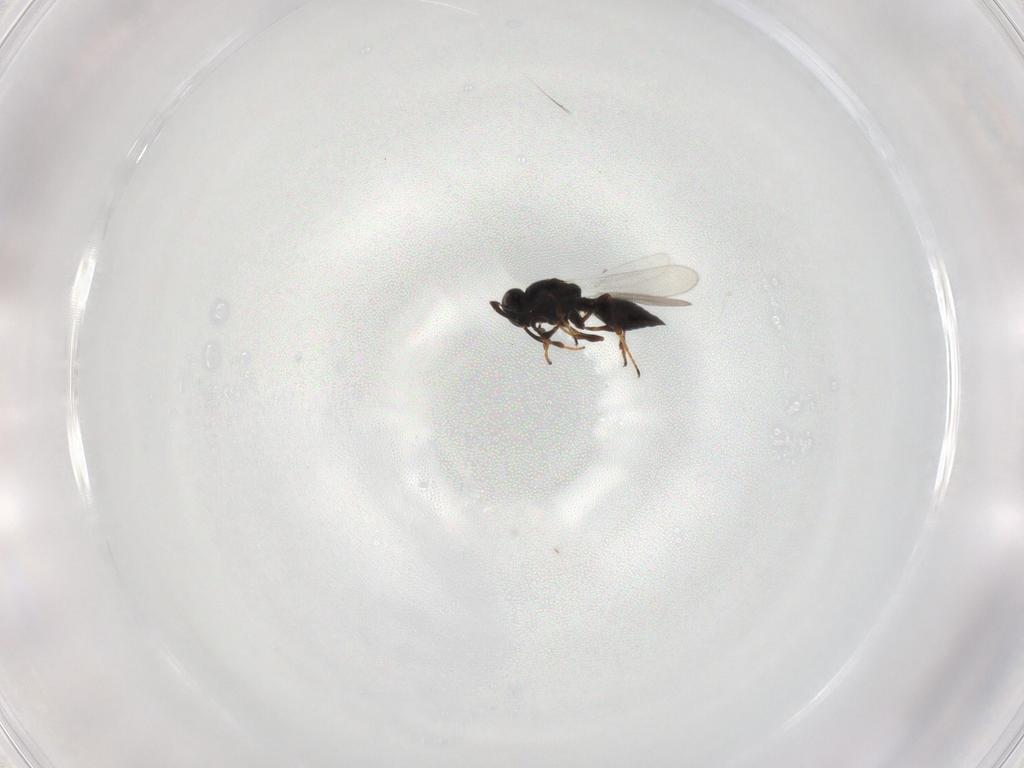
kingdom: Animalia
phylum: Arthropoda
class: Insecta
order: Hymenoptera
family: Platygastridae
